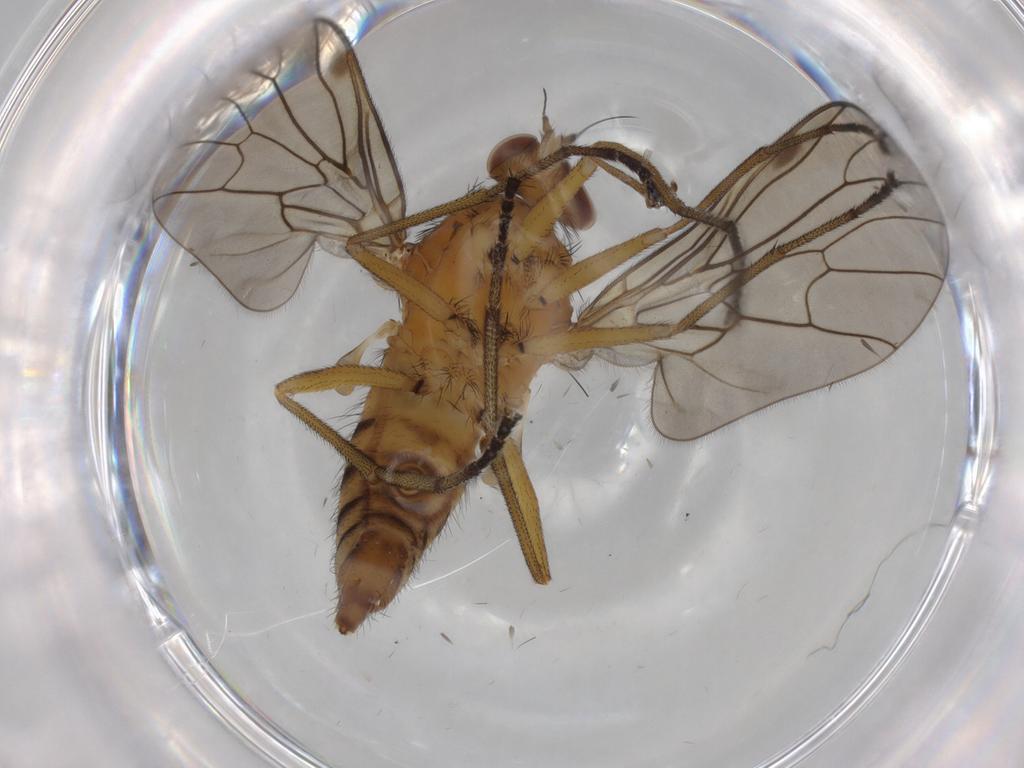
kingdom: Animalia
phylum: Arthropoda
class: Insecta
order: Diptera
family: Brachystomatidae
